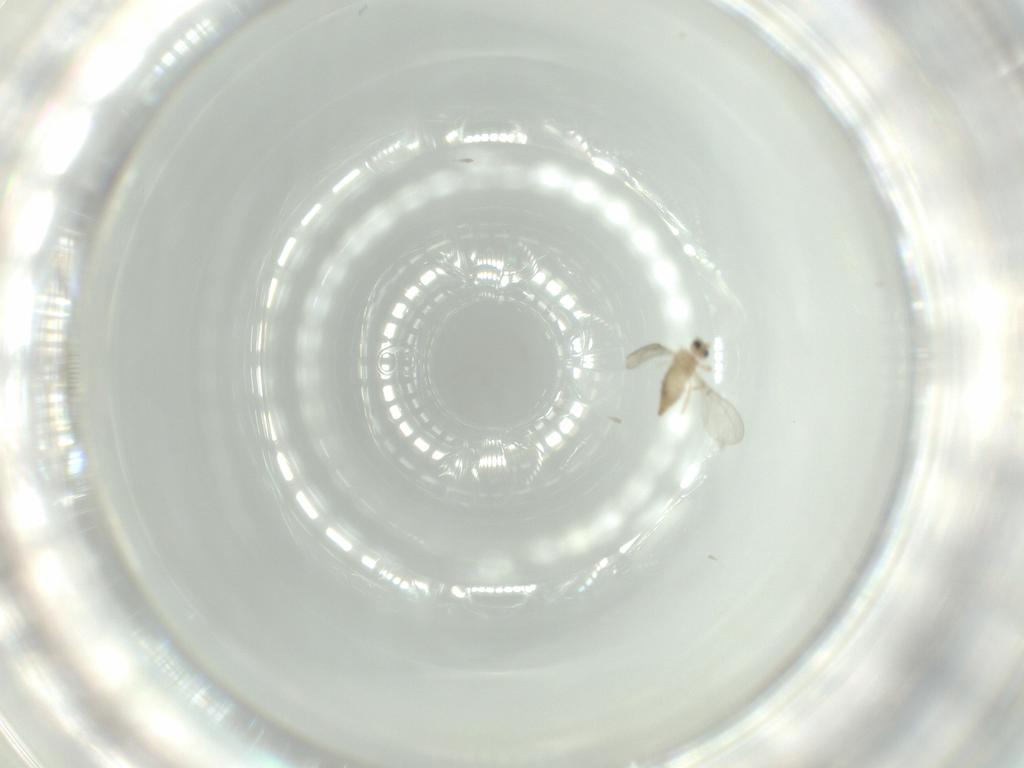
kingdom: Animalia
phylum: Arthropoda
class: Insecta
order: Diptera
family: Cecidomyiidae
